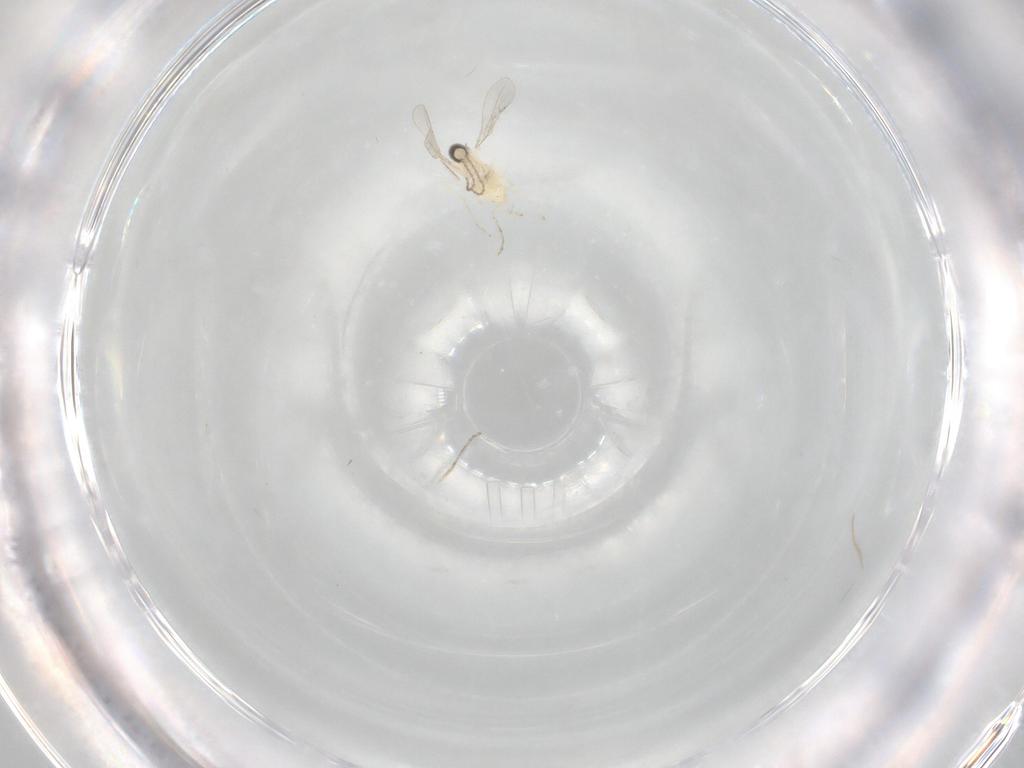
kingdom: Animalia
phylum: Arthropoda
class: Insecta
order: Diptera
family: Cecidomyiidae
